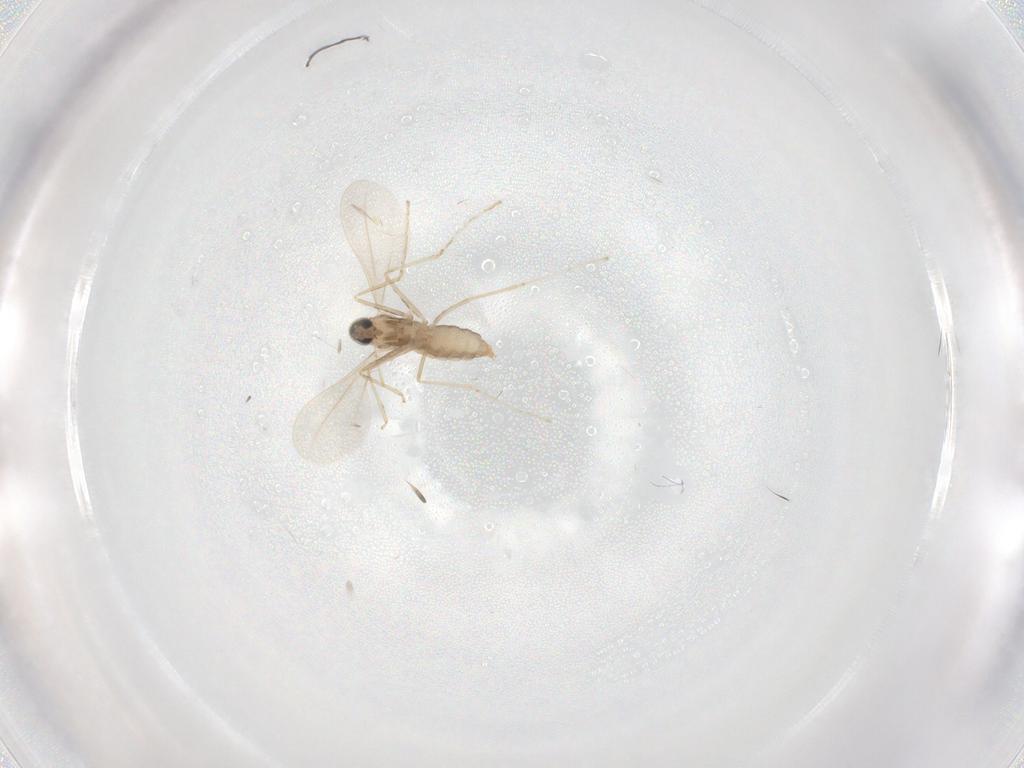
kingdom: Animalia
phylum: Arthropoda
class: Insecta
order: Diptera
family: Cecidomyiidae
